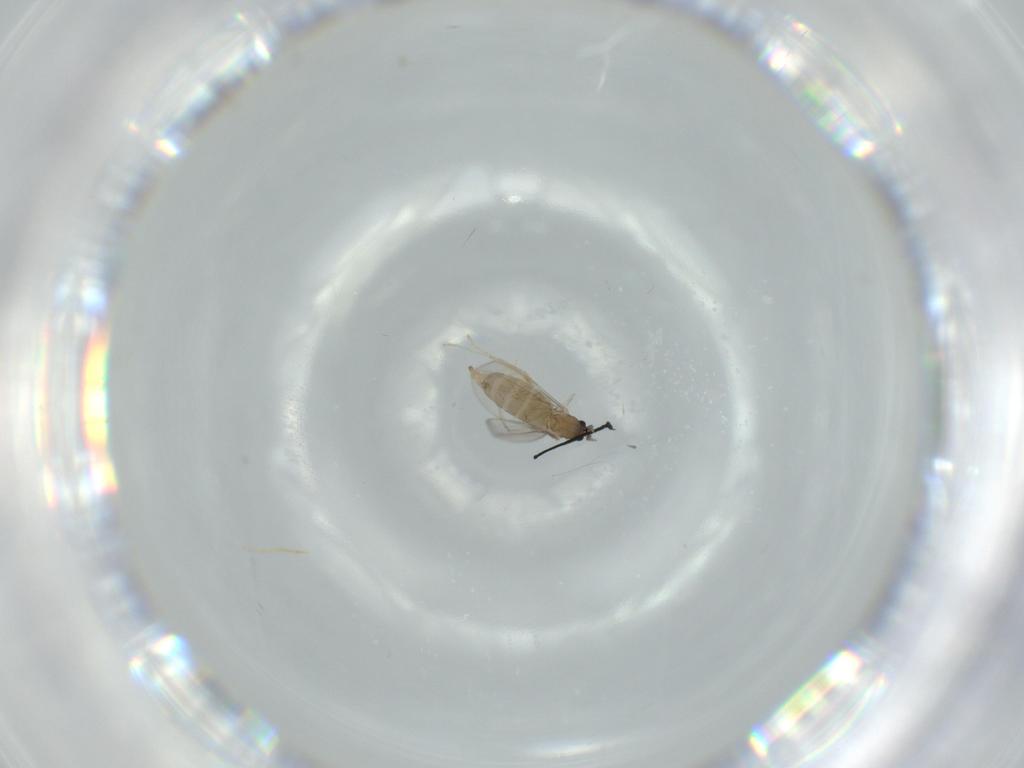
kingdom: Animalia
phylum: Arthropoda
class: Insecta
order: Diptera
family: Cecidomyiidae
